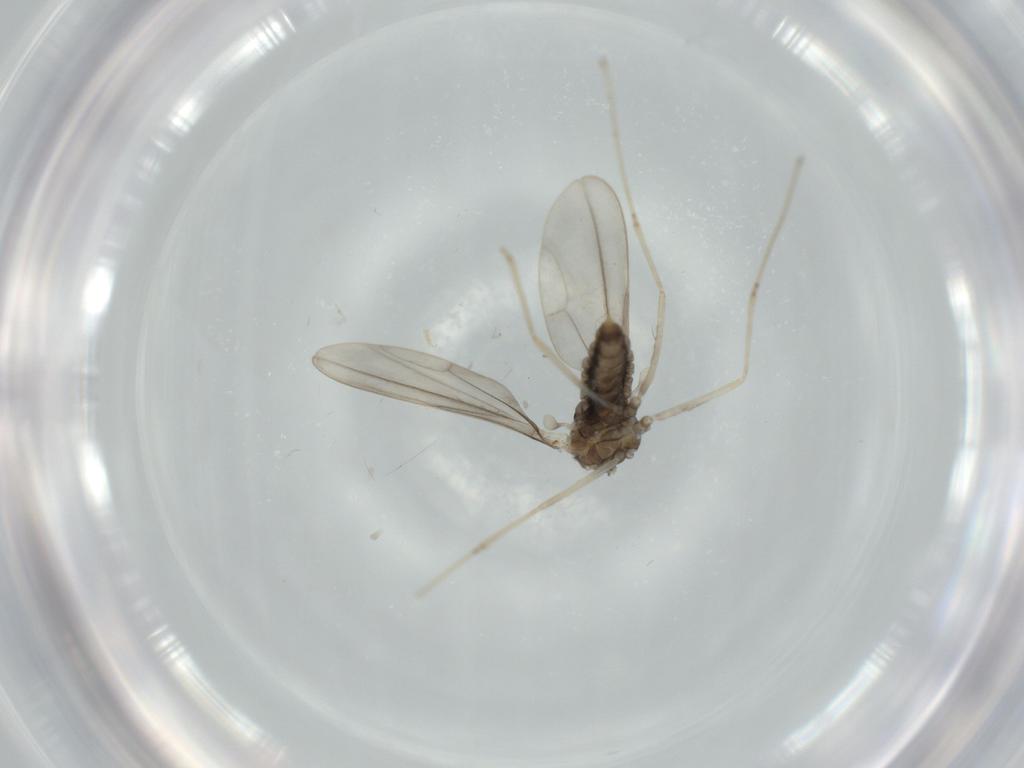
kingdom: Animalia
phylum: Arthropoda
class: Insecta
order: Diptera
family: Cecidomyiidae
